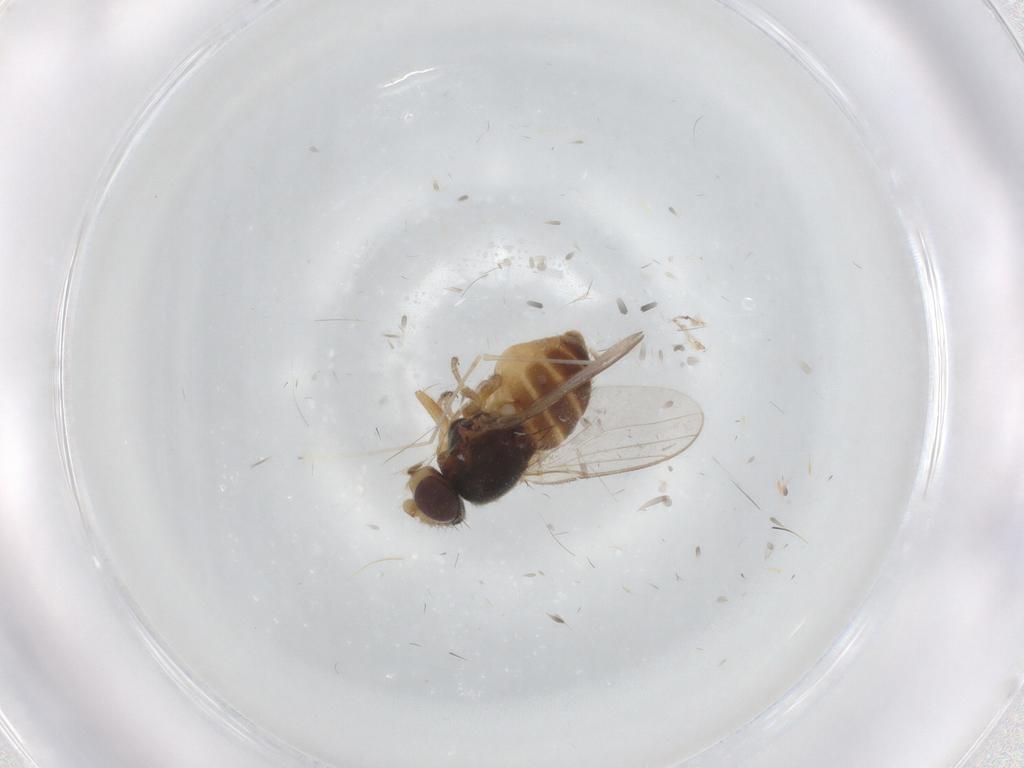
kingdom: Animalia
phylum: Arthropoda
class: Insecta
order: Diptera
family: Chloropidae
